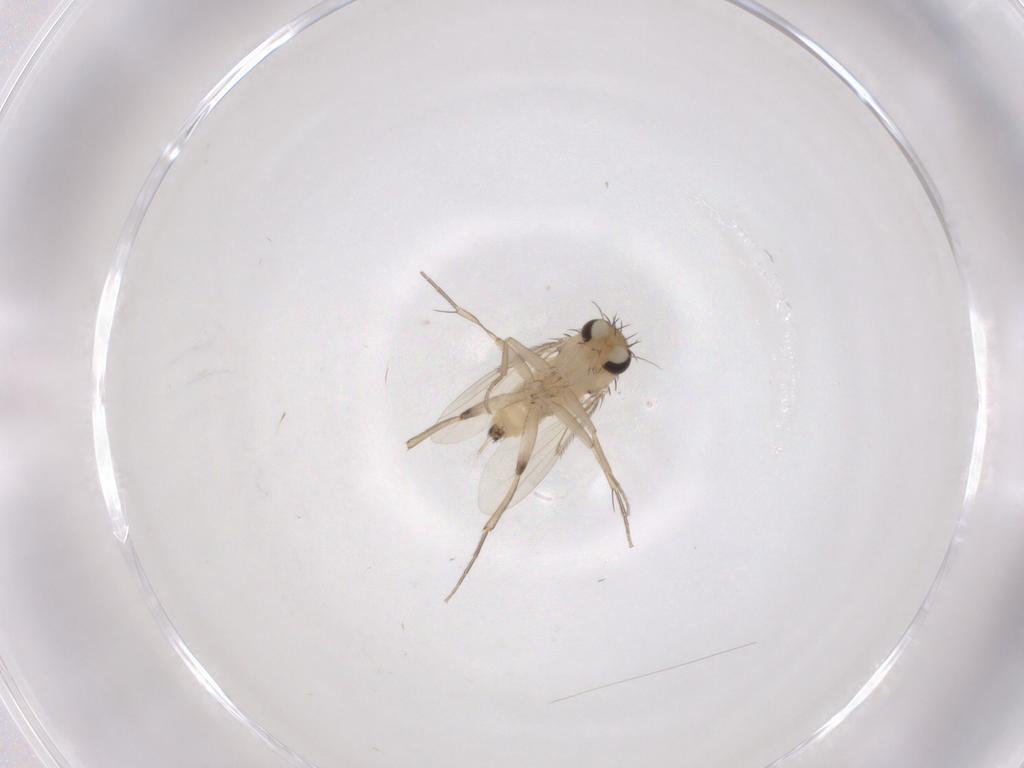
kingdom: Animalia
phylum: Arthropoda
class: Insecta
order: Diptera
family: Phoridae
